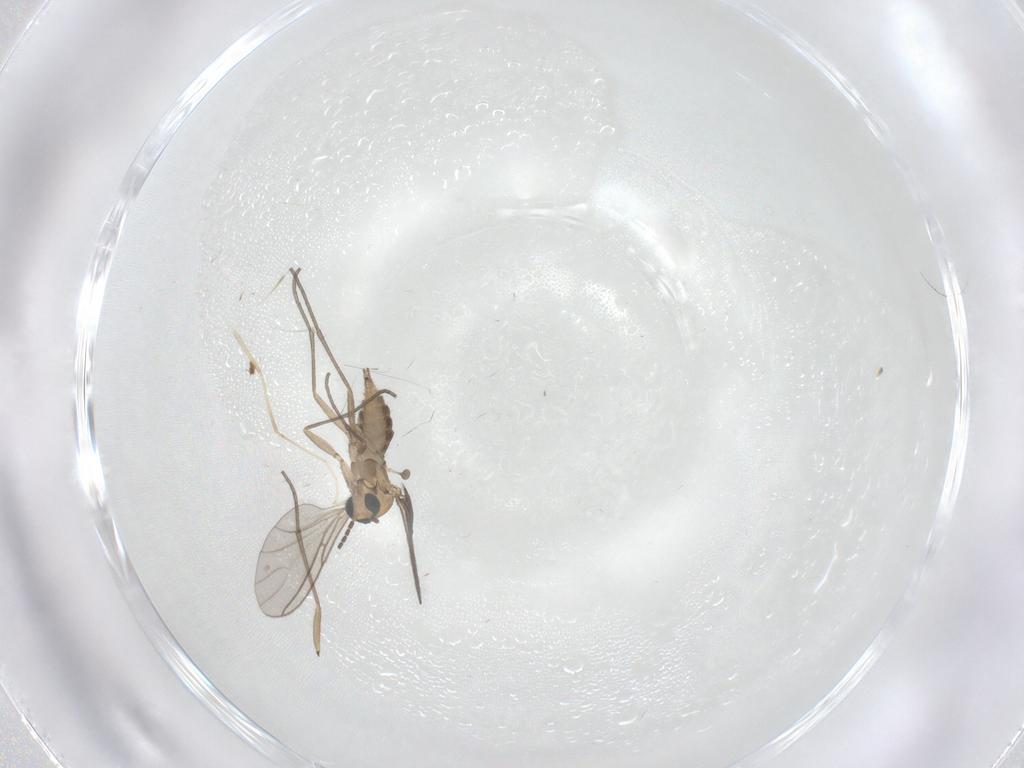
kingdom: Animalia
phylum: Arthropoda
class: Insecta
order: Diptera
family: Sciaridae
